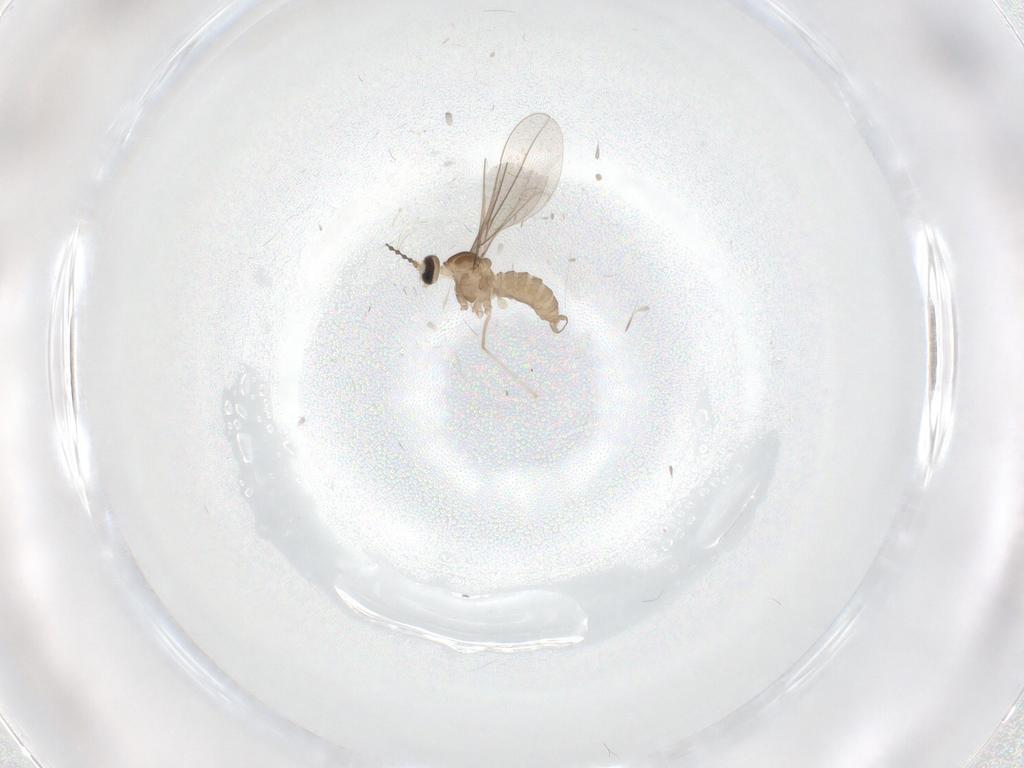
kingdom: Animalia
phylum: Arthropoda
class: Insecta
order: Diptera
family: Cecidomyiidae
